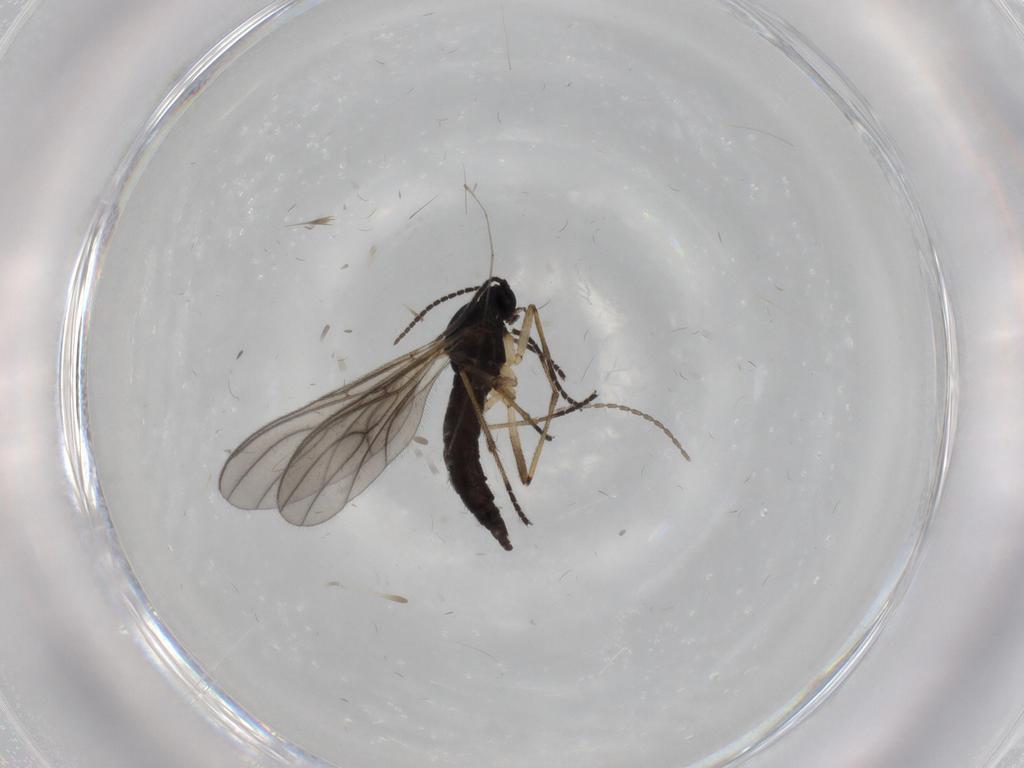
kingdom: Animalia
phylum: Arthropoda
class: Insecta
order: Diptera
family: Sciaridae
